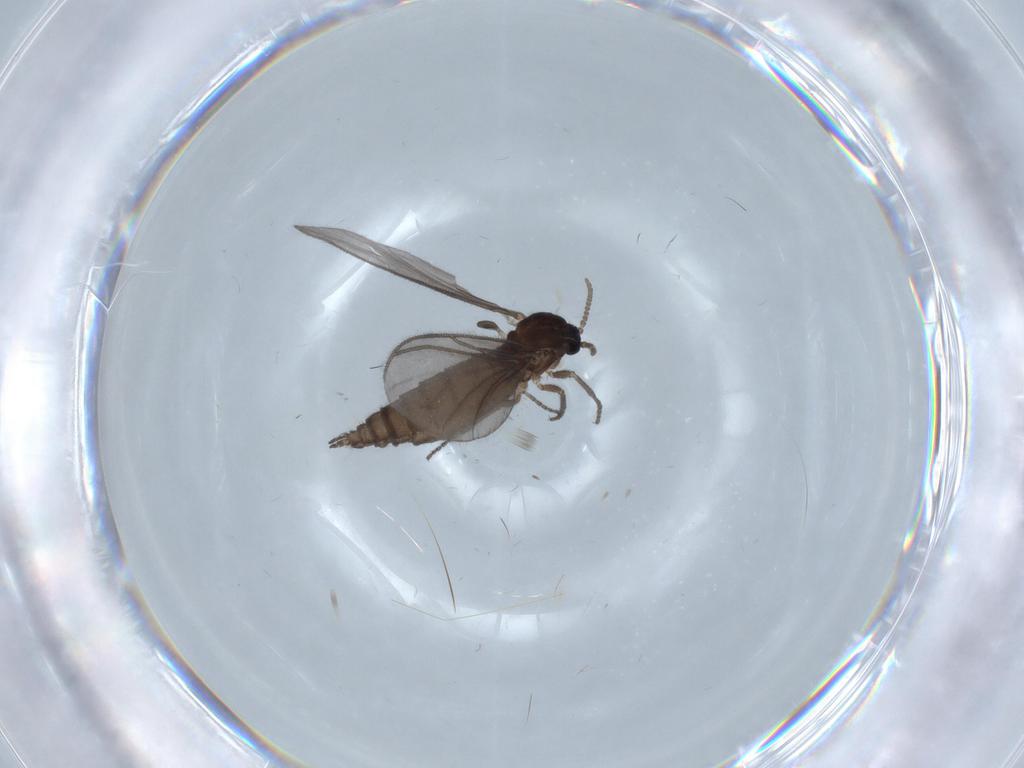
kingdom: Animalia
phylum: Arthropoda
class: Insecta
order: Diptera
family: Sciaridae
